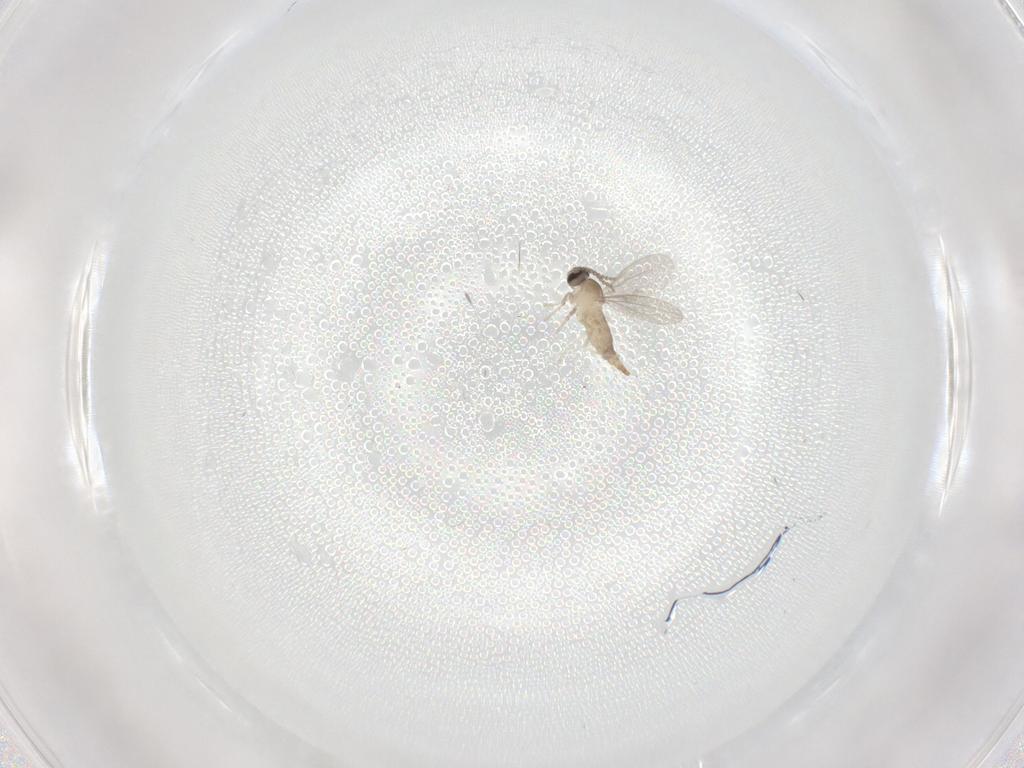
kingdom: Animalia
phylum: Arthropoda
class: Insecta
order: Diptera
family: Cecidomyiidae
